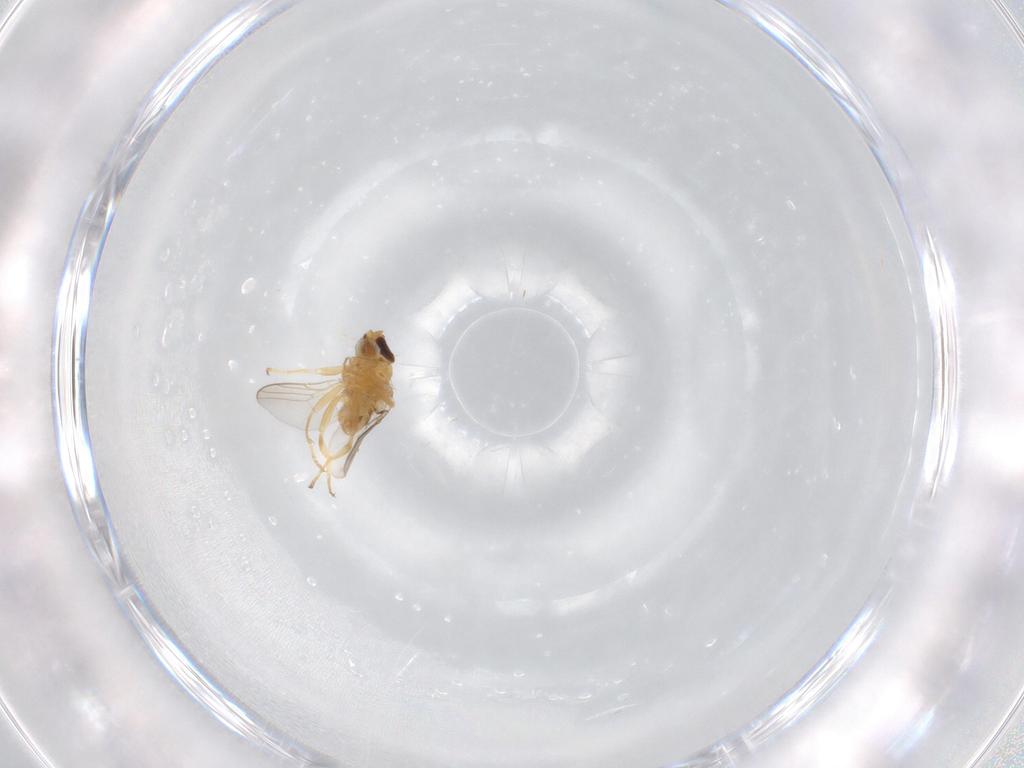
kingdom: Animalia
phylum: Arthropoda
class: Insecta
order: Diptera
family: Chloropidae
